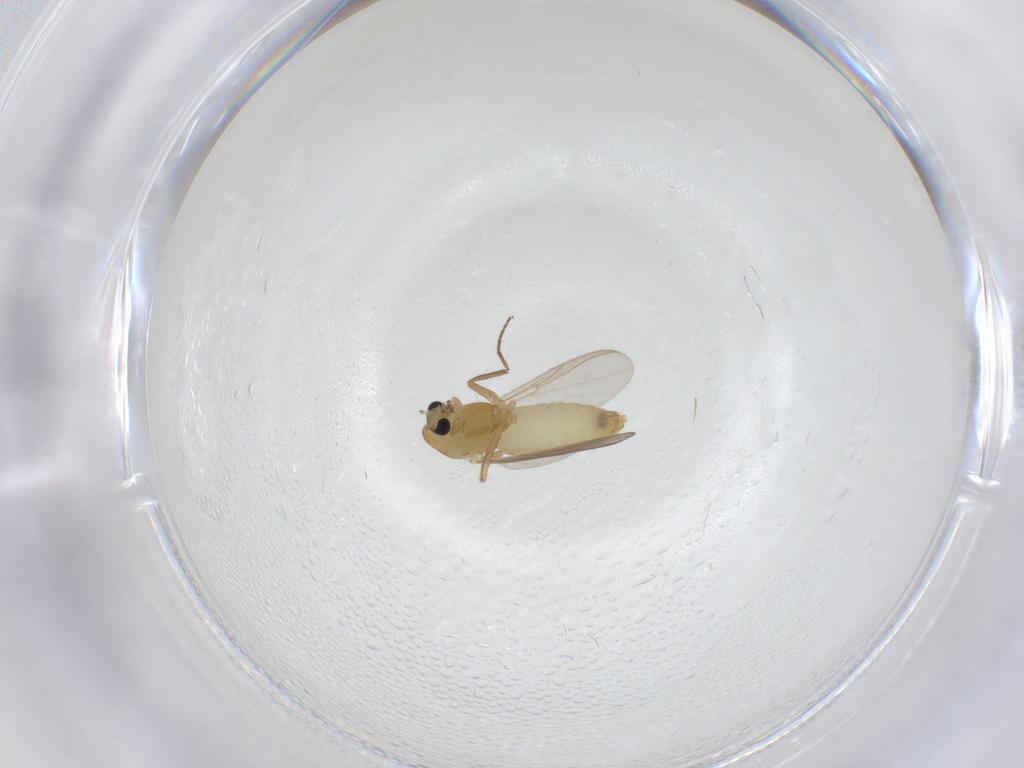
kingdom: Animalia
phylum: Arthropoda
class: Insecta
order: Diptera
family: Chironomidae
